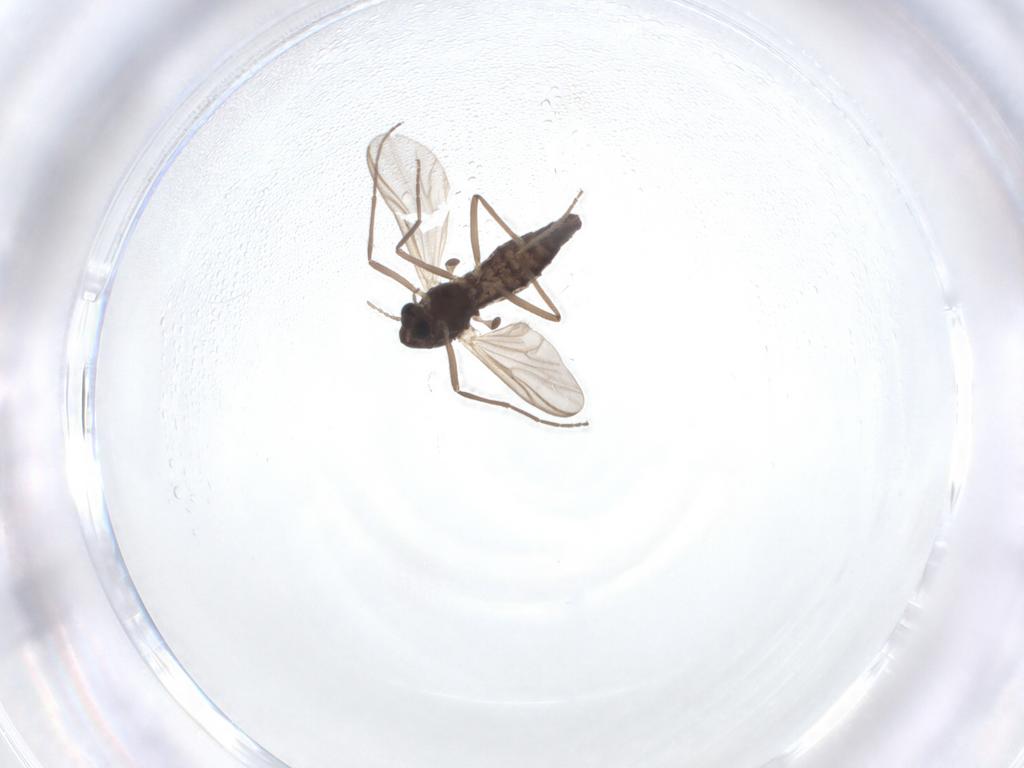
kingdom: Animalia
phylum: Arthropoda
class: Insecta
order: Diptera
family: Chironomidae
